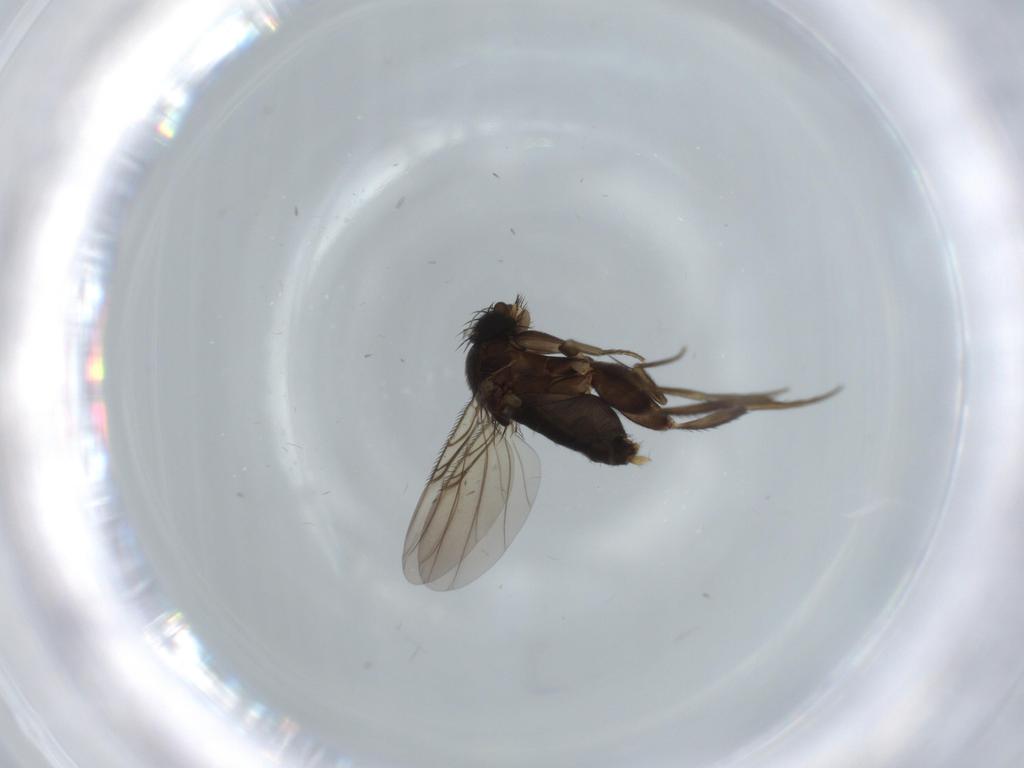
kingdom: Animalia
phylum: Arthropoda
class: Insecta
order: Diptera
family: Phoridae
